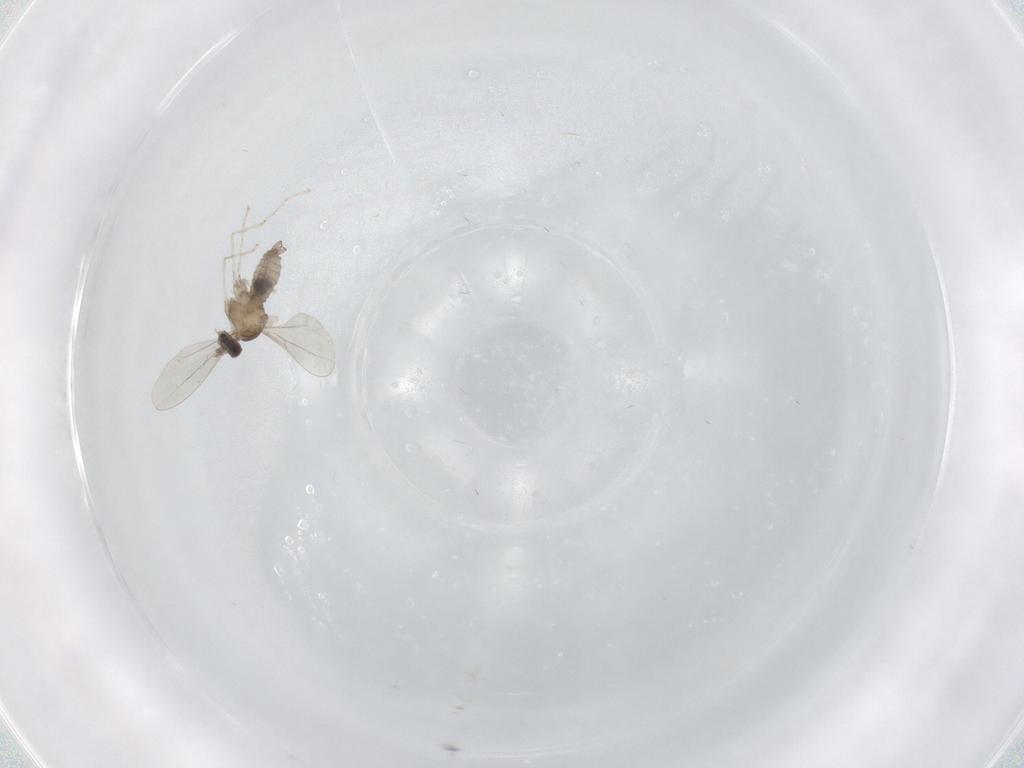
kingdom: Animalia
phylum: Arthropoda
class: Insecta
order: Diptera
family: Cecidomyiidae
